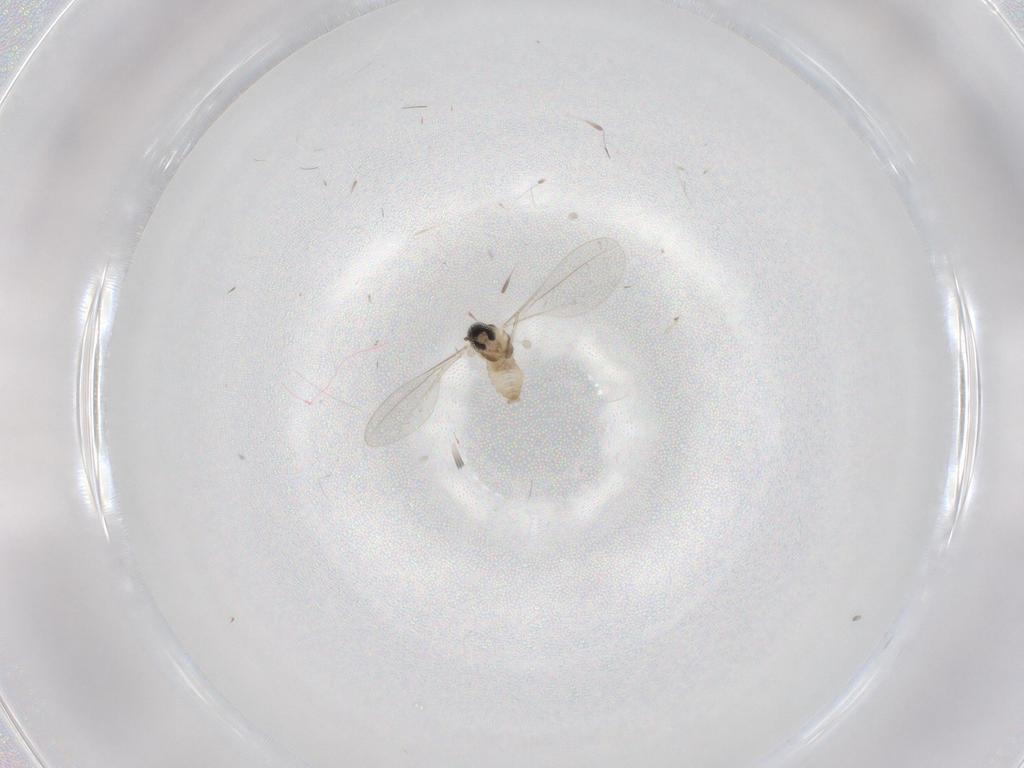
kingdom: Animalia
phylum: Arthropoda
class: Insecta
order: Diptera
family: Cecidomyiidae
